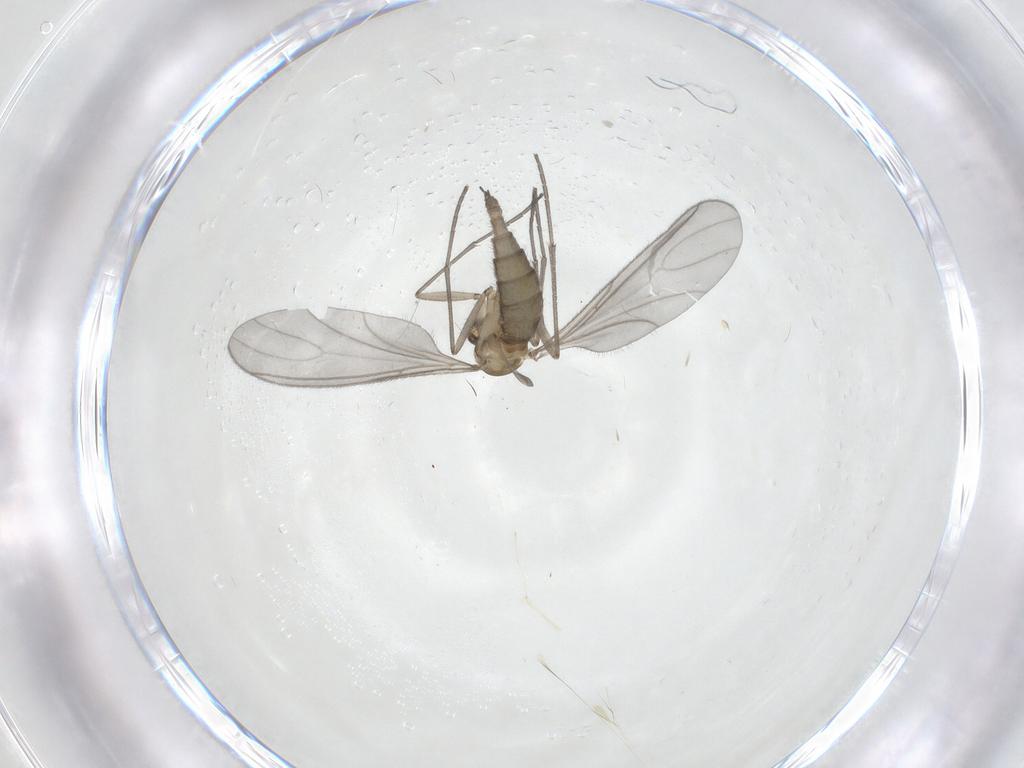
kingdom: Animalia
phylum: Arthropoda
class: Insecta
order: Diptera
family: Sciaridae
